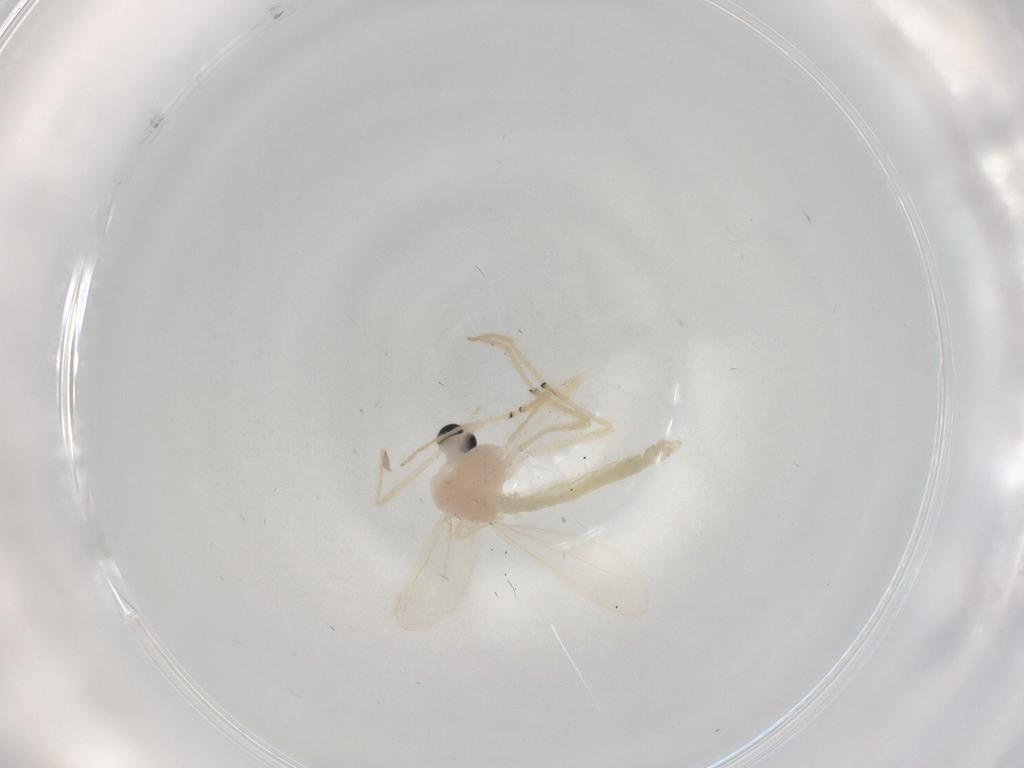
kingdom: Animalia
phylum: Arthropoda
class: Insecta
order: Diptera
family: Chironomidae
